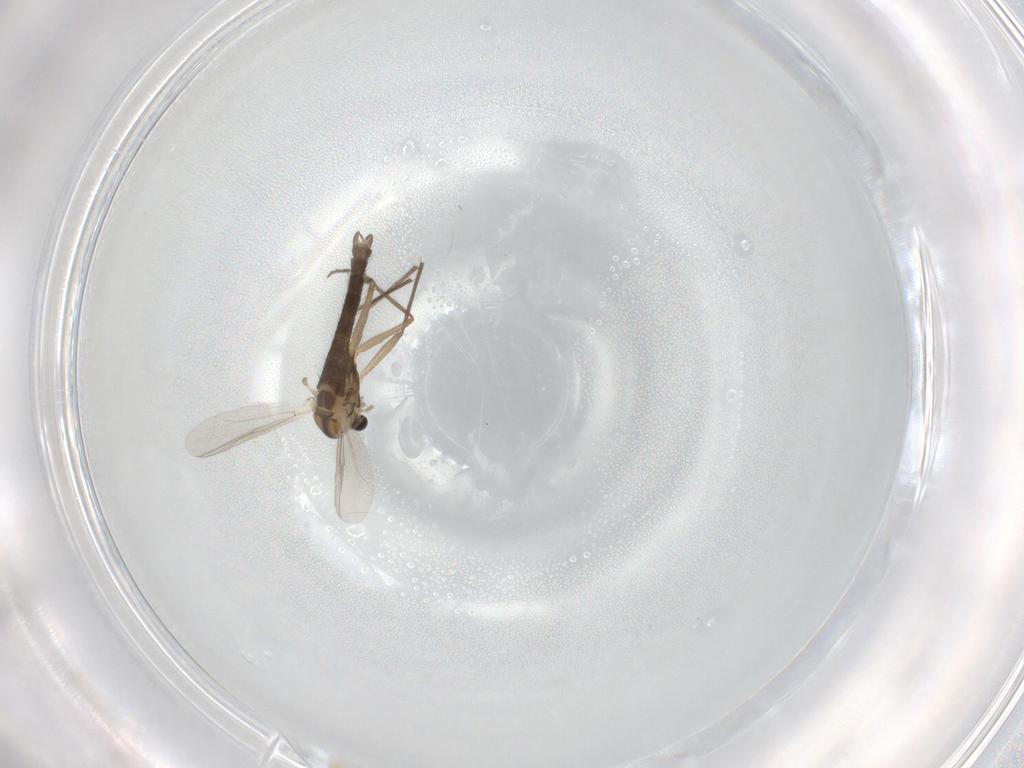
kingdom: Animalia
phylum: Arthropoda
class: Insecta
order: Diptera
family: Chironomidae
